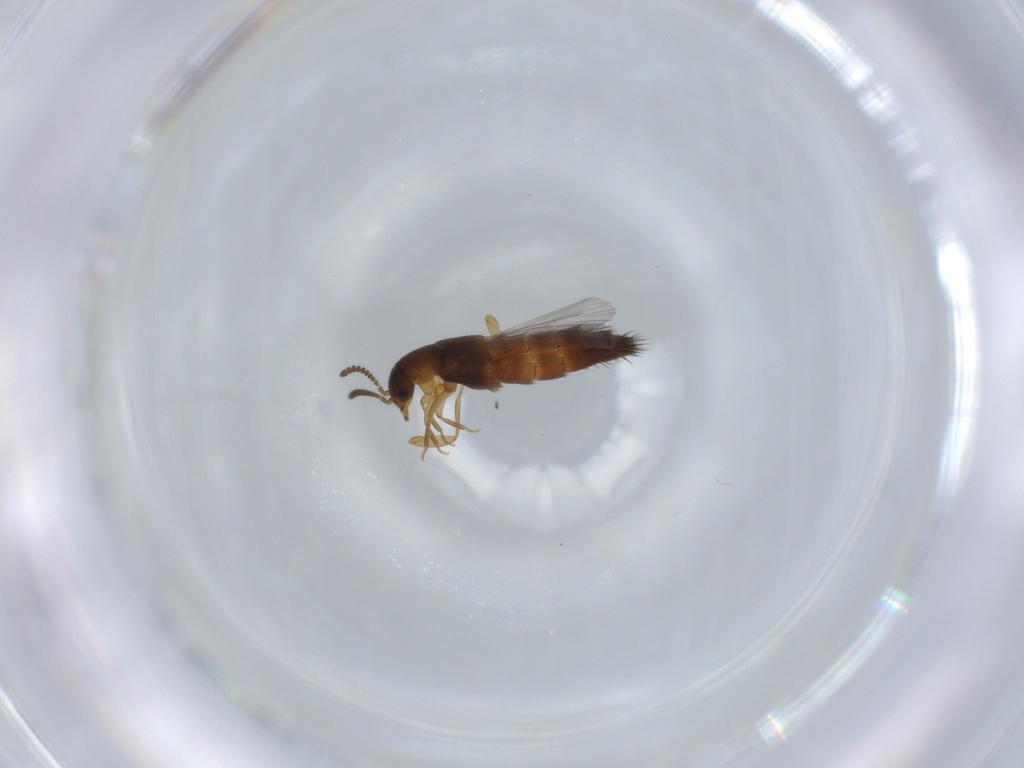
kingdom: Animalia
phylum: Arthropoda
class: Insecta
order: Coleoptera
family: Staphylinidae
